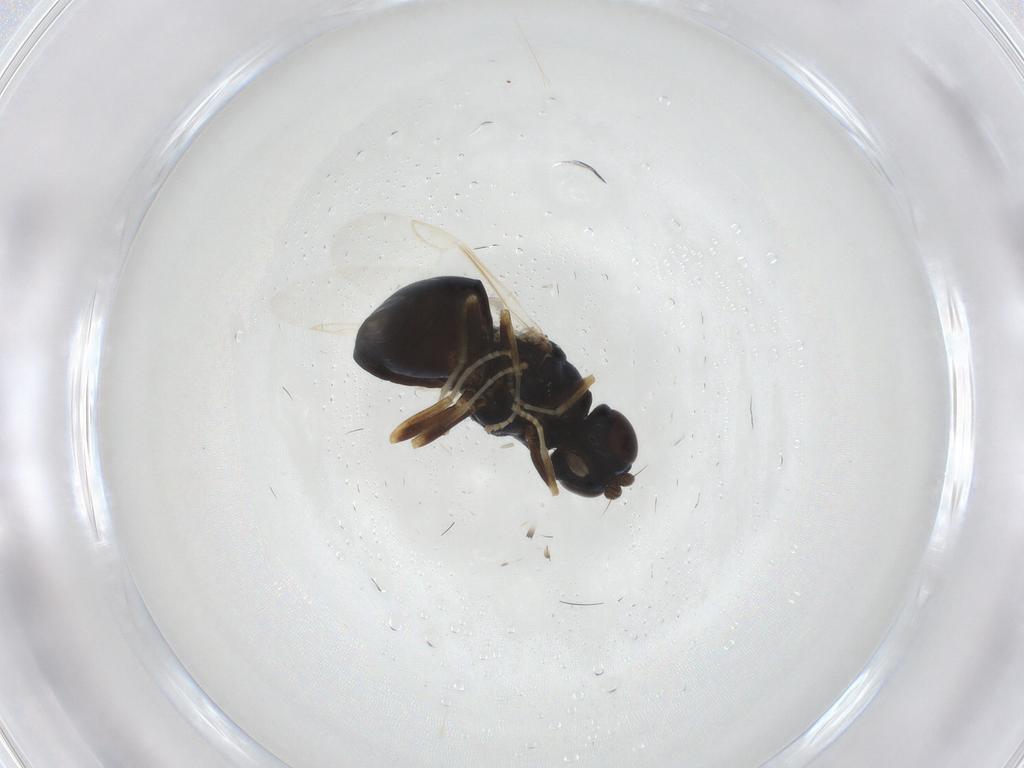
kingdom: Animalia
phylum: Arthropoda
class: Insecta
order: Diptera
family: Stratiomyidae
